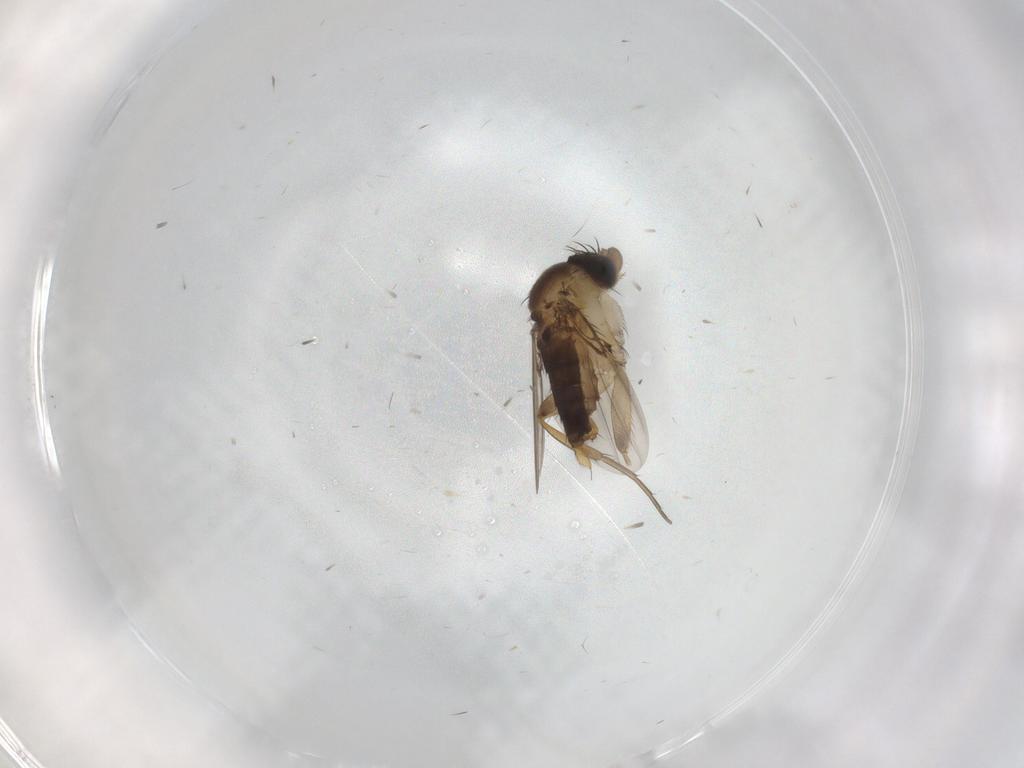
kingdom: Animalia
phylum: Arthropoda
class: Insecta
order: Diptera
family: Phoridae
